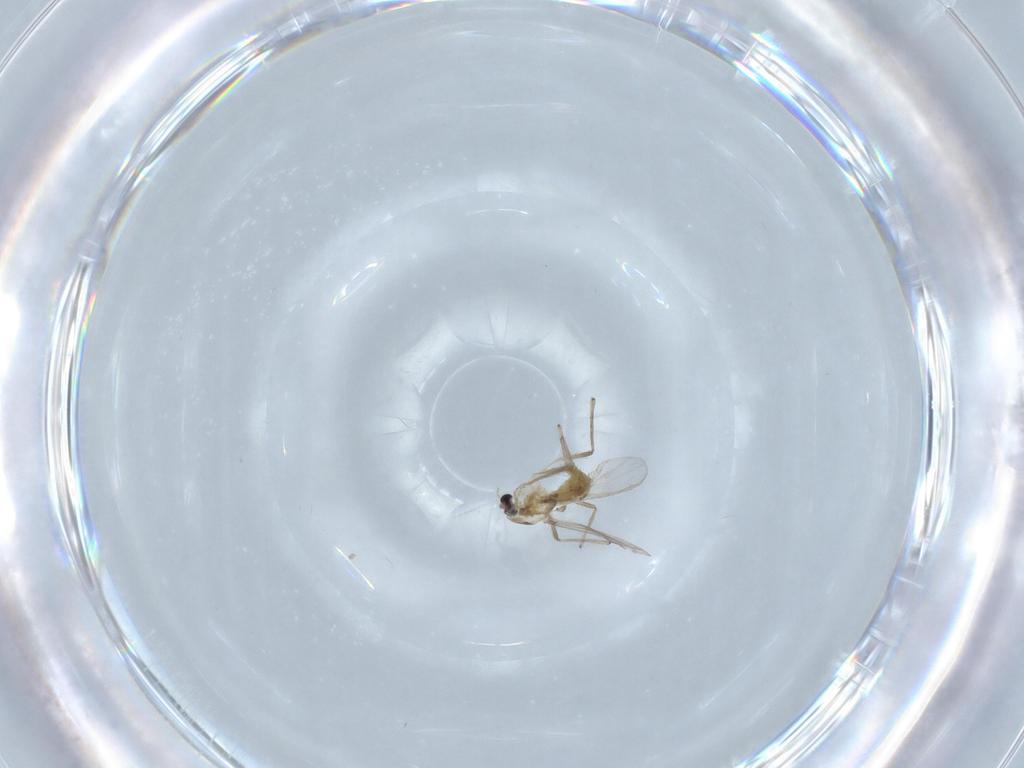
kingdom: Animalia
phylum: Arthropoda
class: Insecta
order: Diptera
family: Chironomidae
